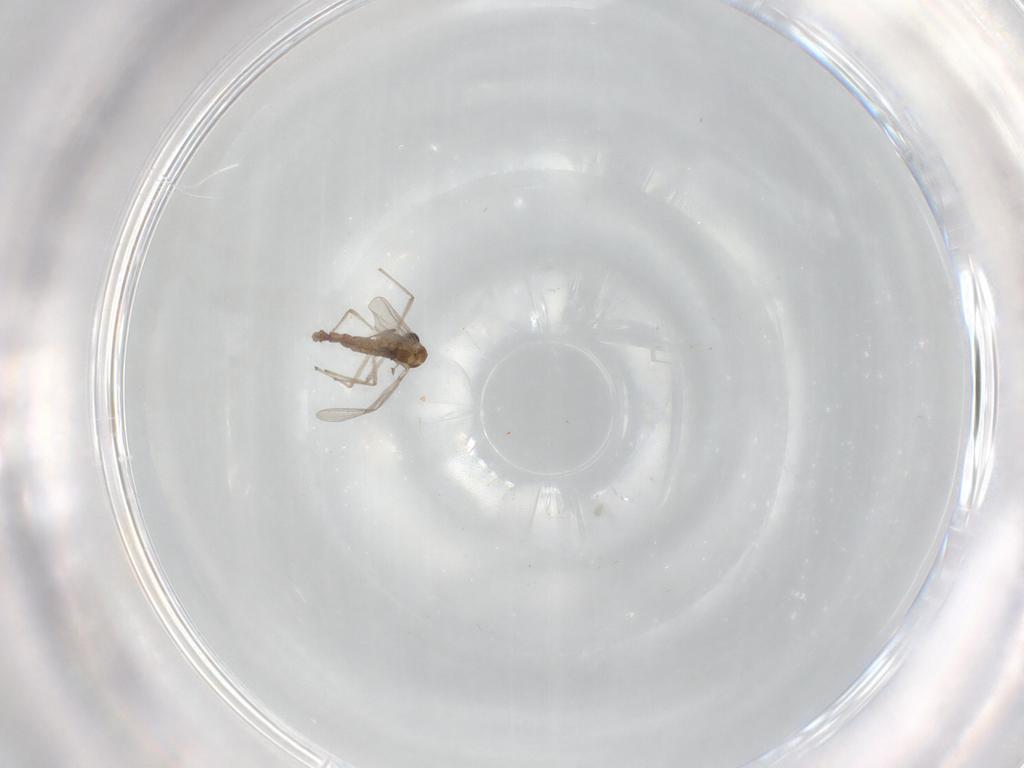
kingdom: Animalia
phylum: Arthropoda
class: Insecta
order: Diptera
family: Chironomidae
